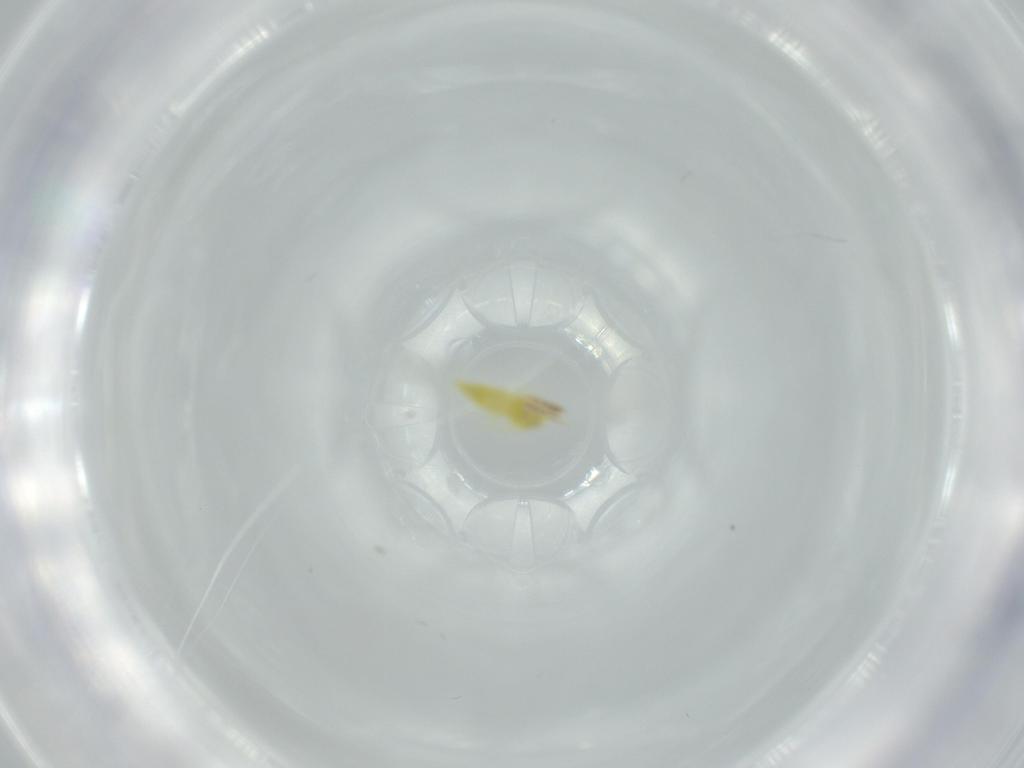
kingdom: Animalia
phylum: Arthropoda
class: Insecta
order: Hemiptera
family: Aleyrodidae
